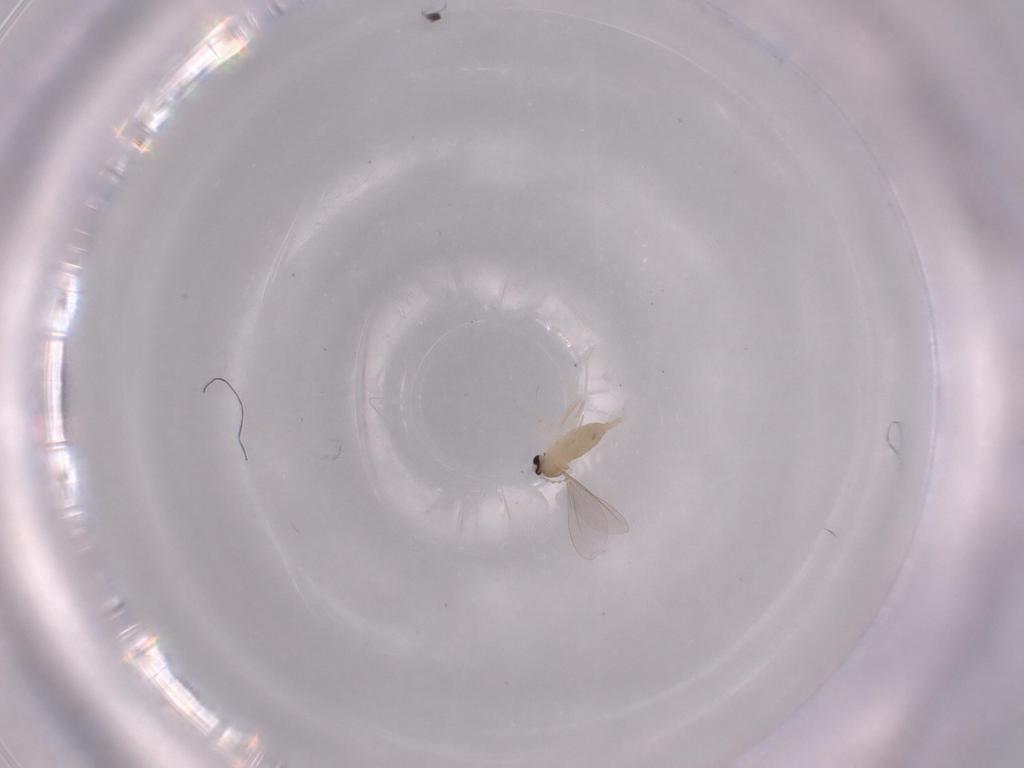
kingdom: Animalia
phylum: Arthropoda
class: Insecta
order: Diptera
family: Cecidomyiidae
